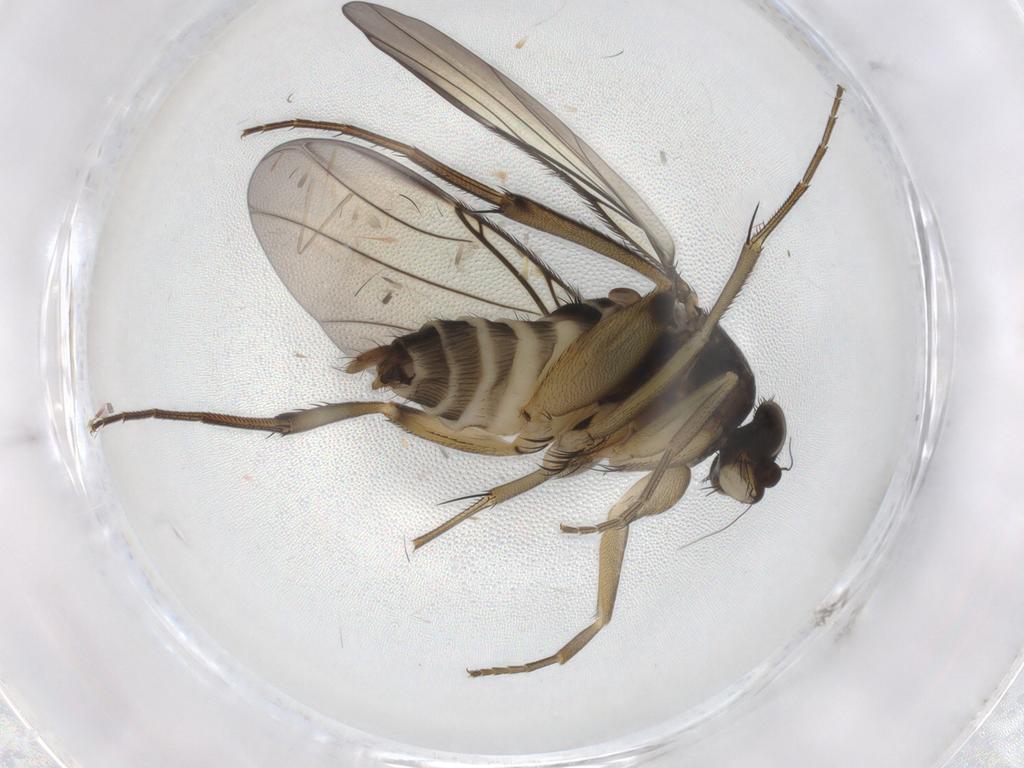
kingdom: Animalia
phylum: Arthropoda
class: Insecta
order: Diptera
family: Phoridae
